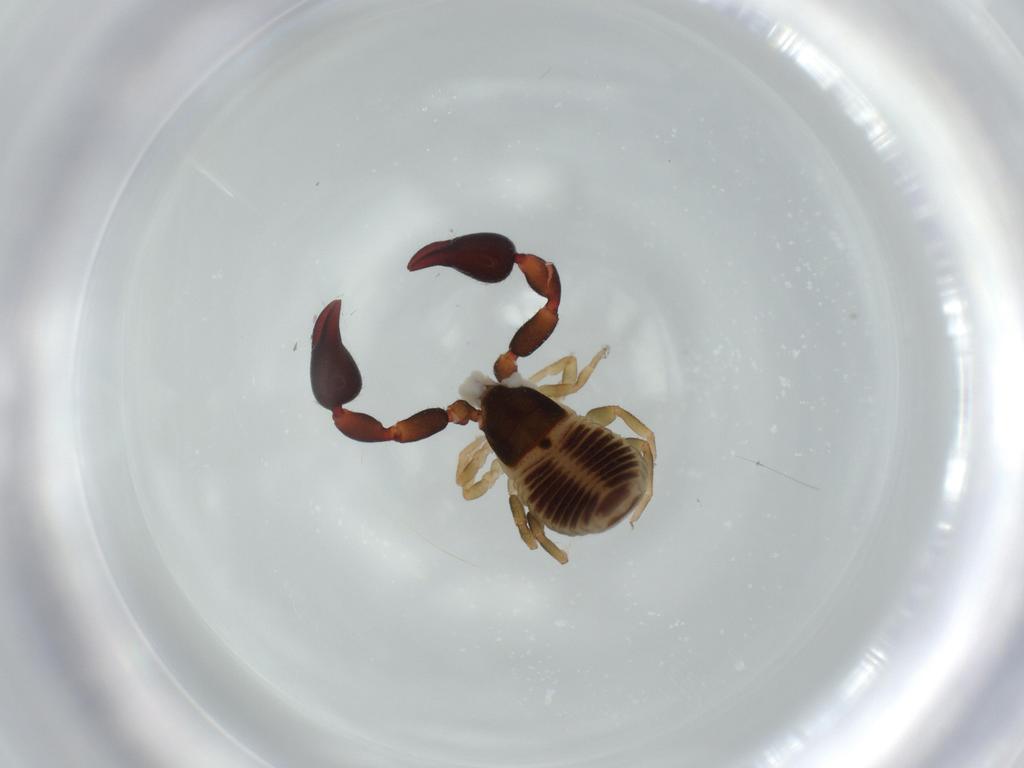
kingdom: Animalia
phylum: Arthropoda
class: Arachnida
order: Pseudoscorpiones
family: Chernetidae
